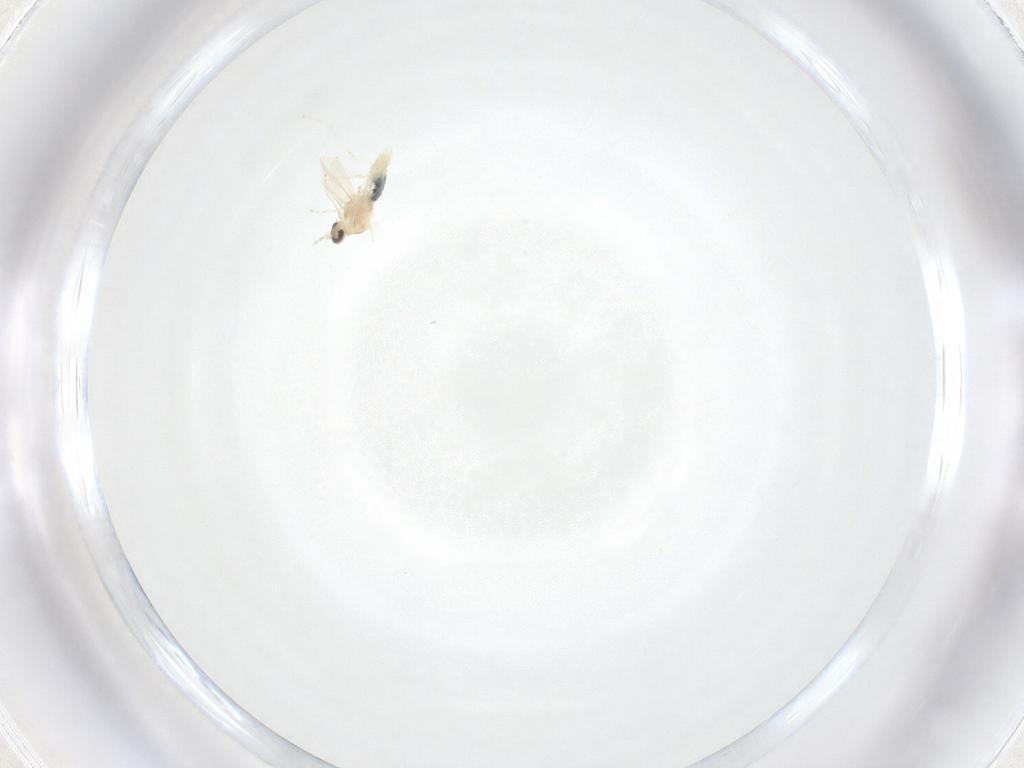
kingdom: Animalia
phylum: Arthropoda
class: Insecta
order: Diptera
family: Cecidomyiidae
